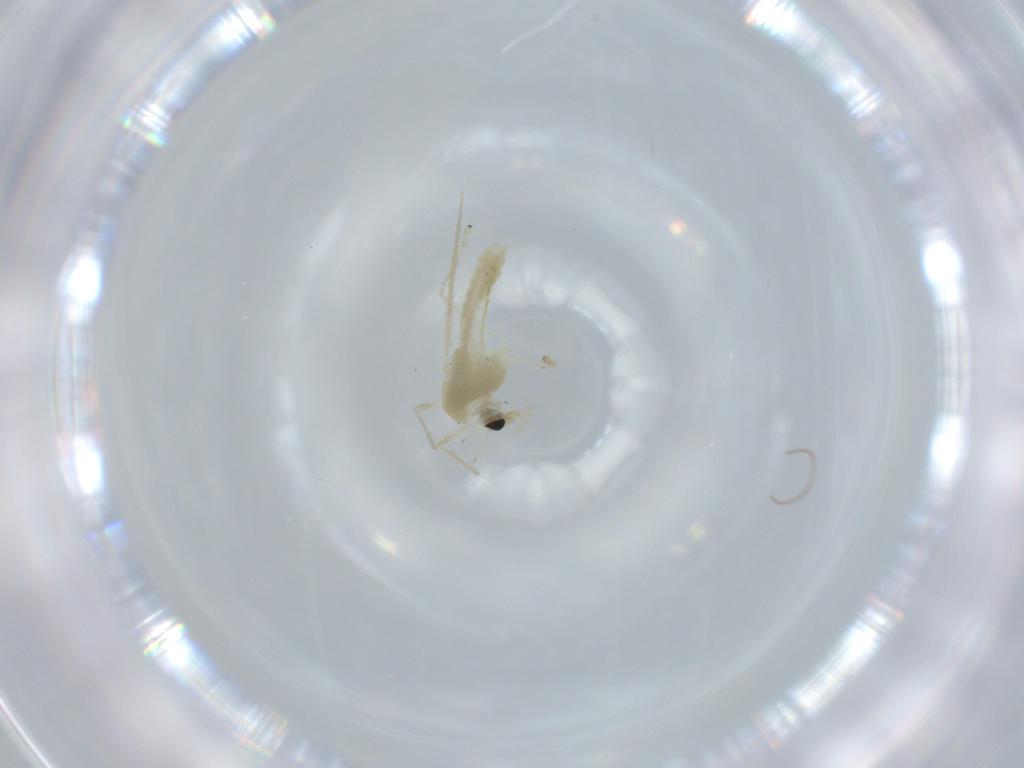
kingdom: Animalia
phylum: Arthropoda
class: Insecta
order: Diptera
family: Chironomidae
